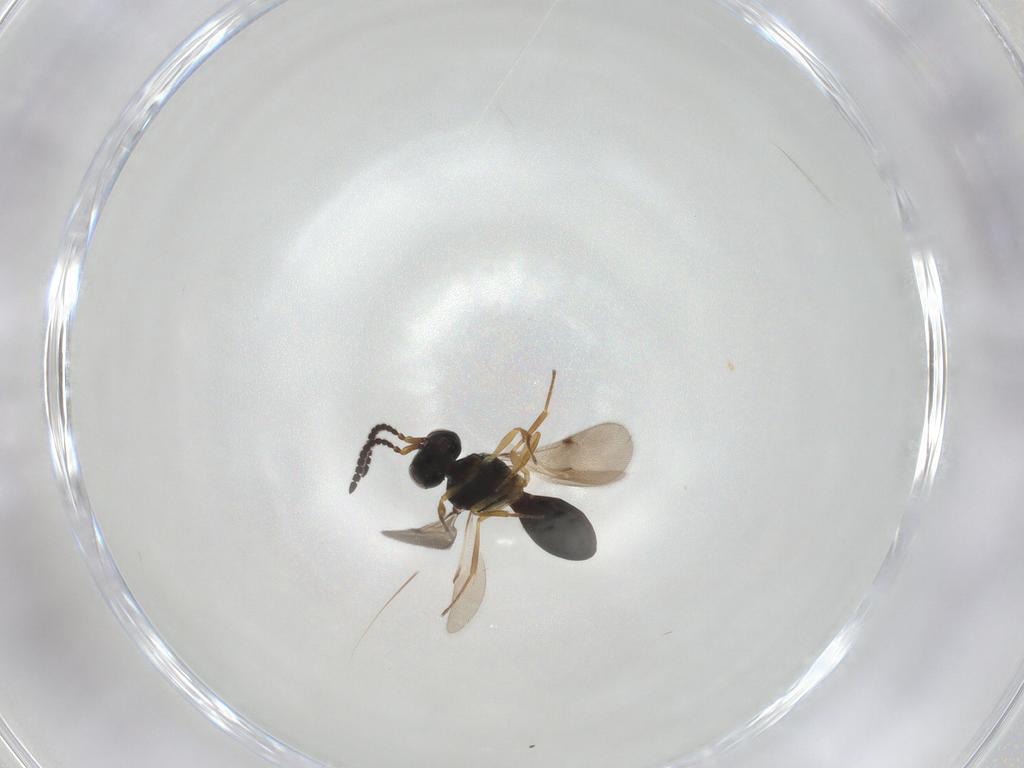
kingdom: Animalia
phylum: Arthropoda
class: Insecta
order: Hymenoptera
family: Scelionidae
